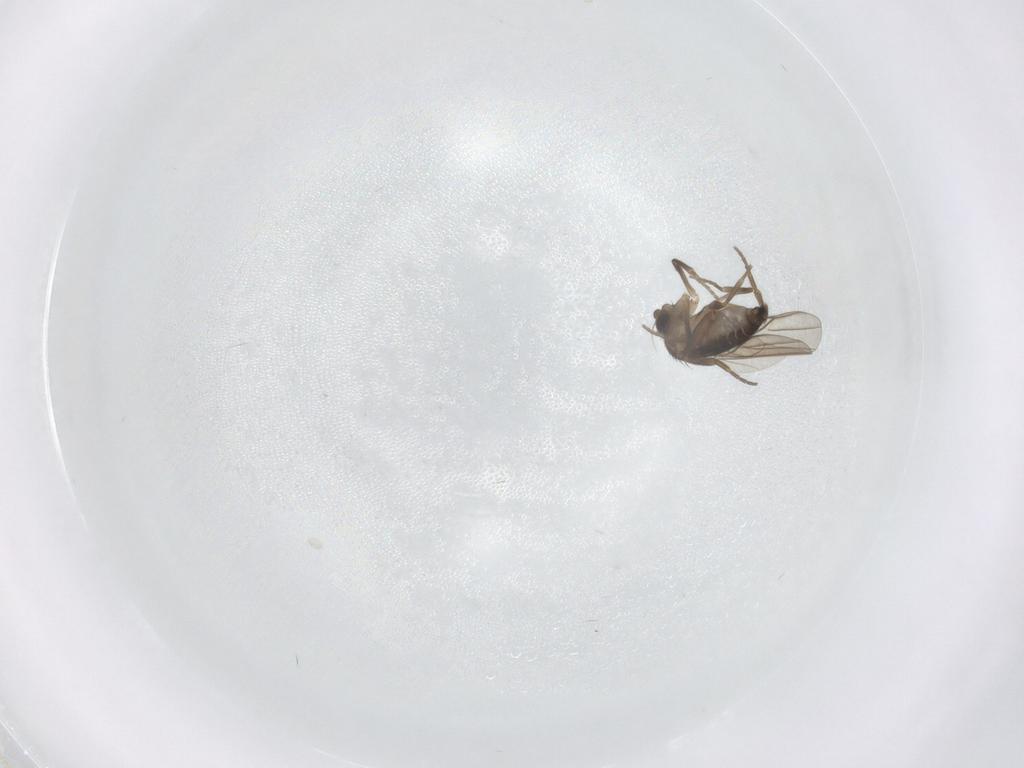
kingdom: Animalia
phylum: Arthropoda
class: Insecta
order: Diptera
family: Phoridae
